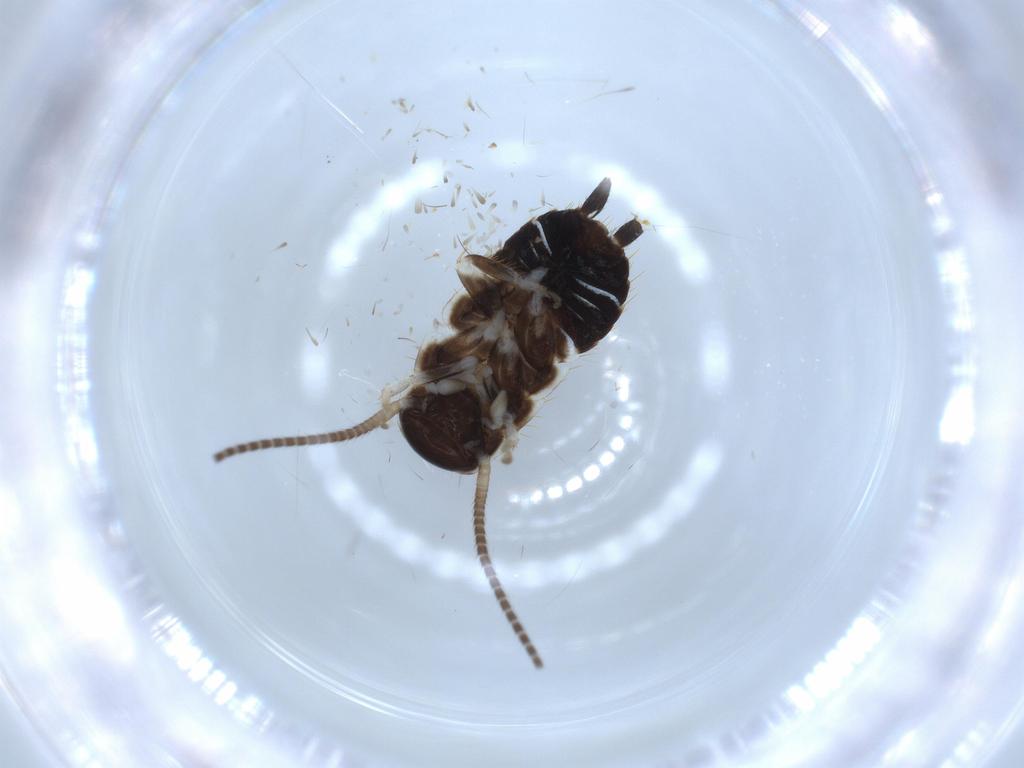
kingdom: Animalia
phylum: Arthropoda
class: Insecta
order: Blattodea
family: Ectobiidae
